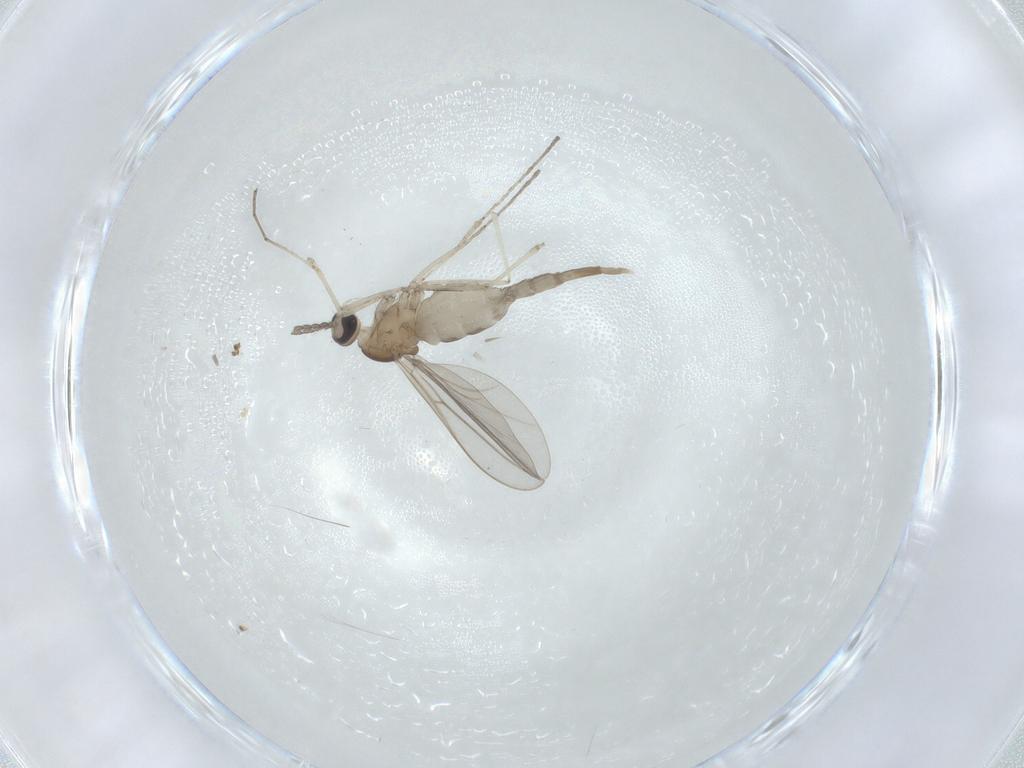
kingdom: Animalia
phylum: Arthropoda
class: Insecta
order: Diptera
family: Cecidomyiidae
